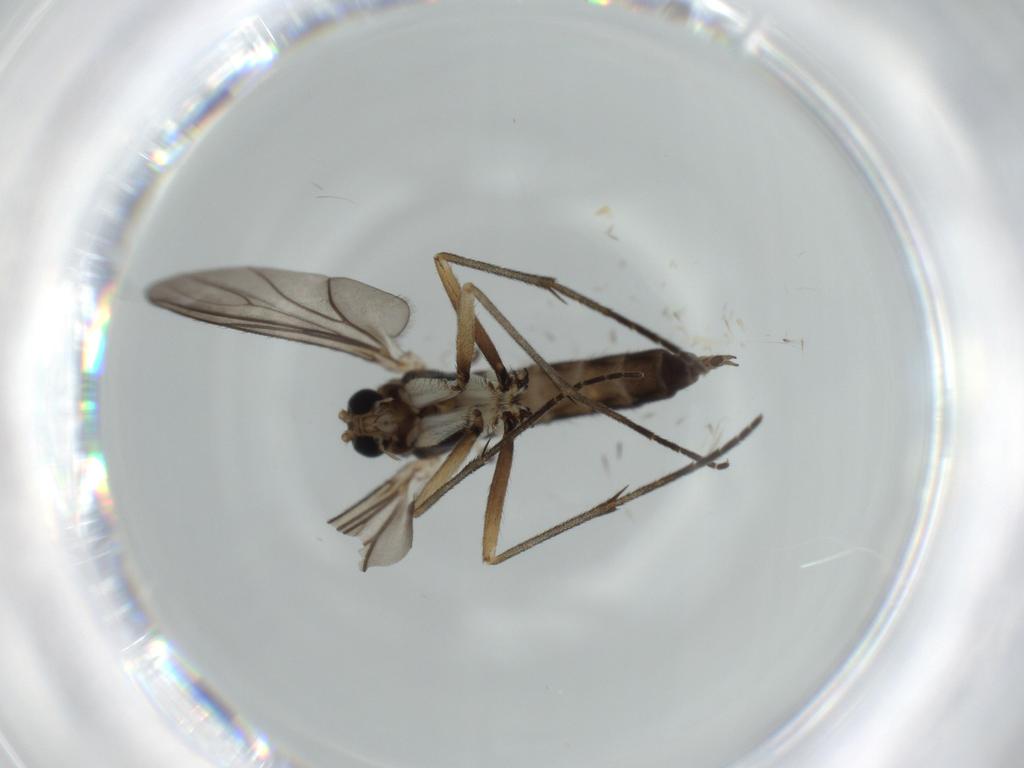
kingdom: Animalia
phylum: Arthropoda
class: Insecta
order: Diptera
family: Sciaridae
